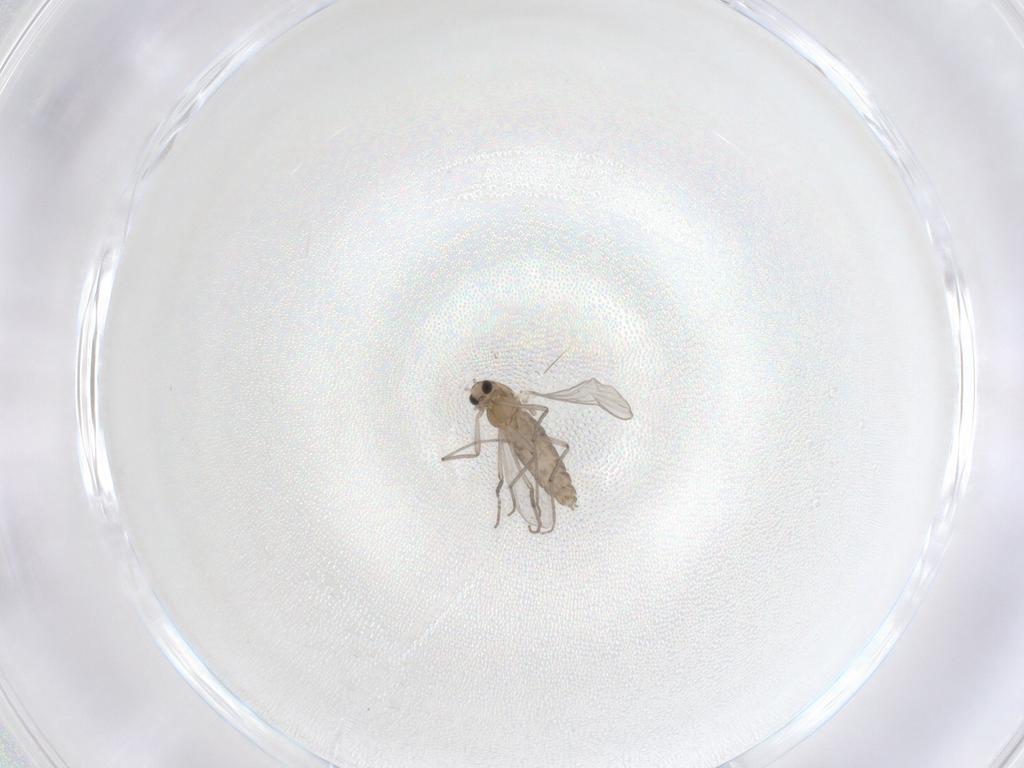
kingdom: Animalia
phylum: Arthropoda
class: Insecta
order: Diptera
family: Chironomidae
